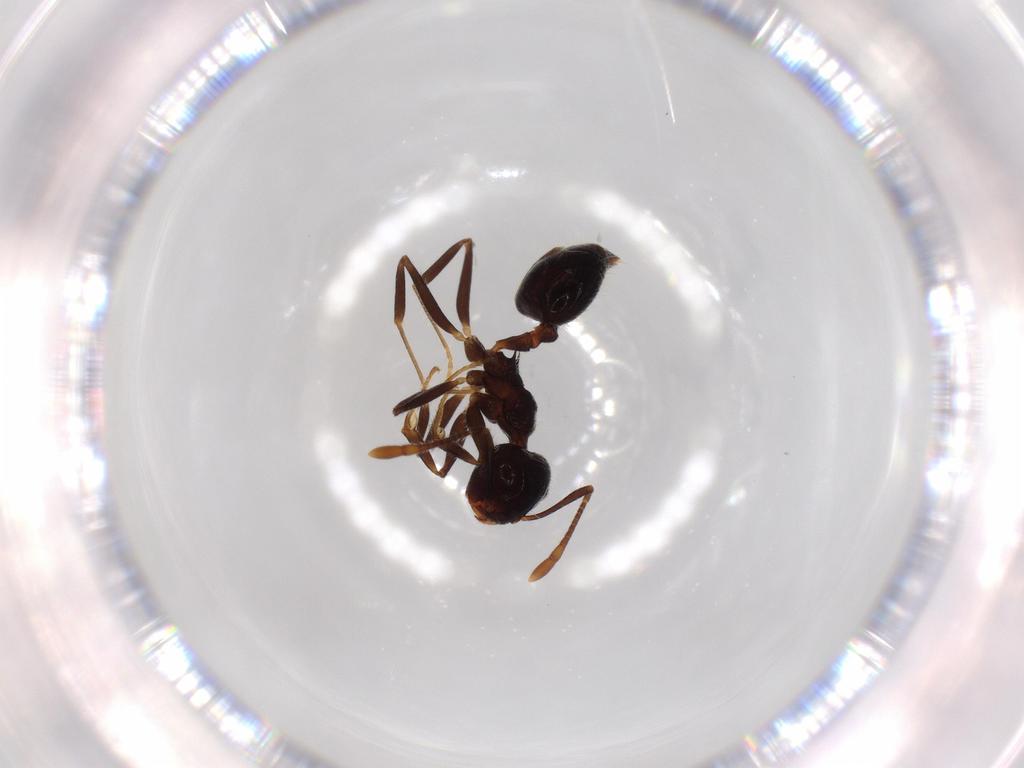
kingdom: Animalia
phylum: Arthropoda
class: Insecta
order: Hymenoptera
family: Formicidae
